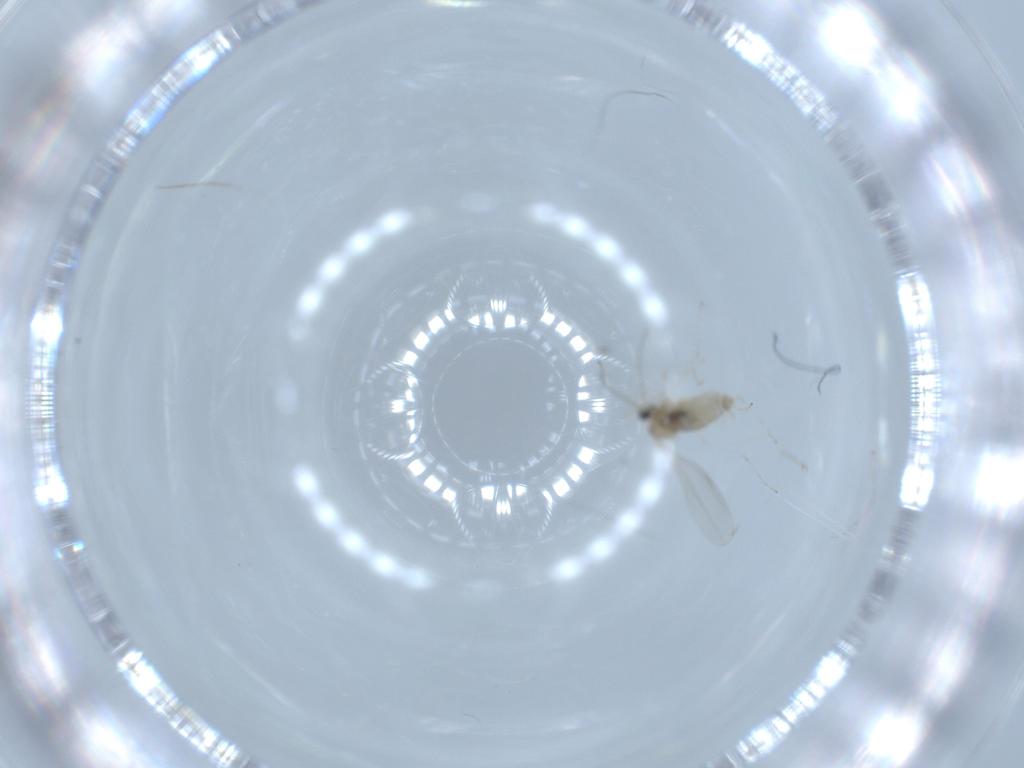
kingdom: Animalia
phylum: Arthropoda
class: Insecta
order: Diptera
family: Cecidomyiidae
